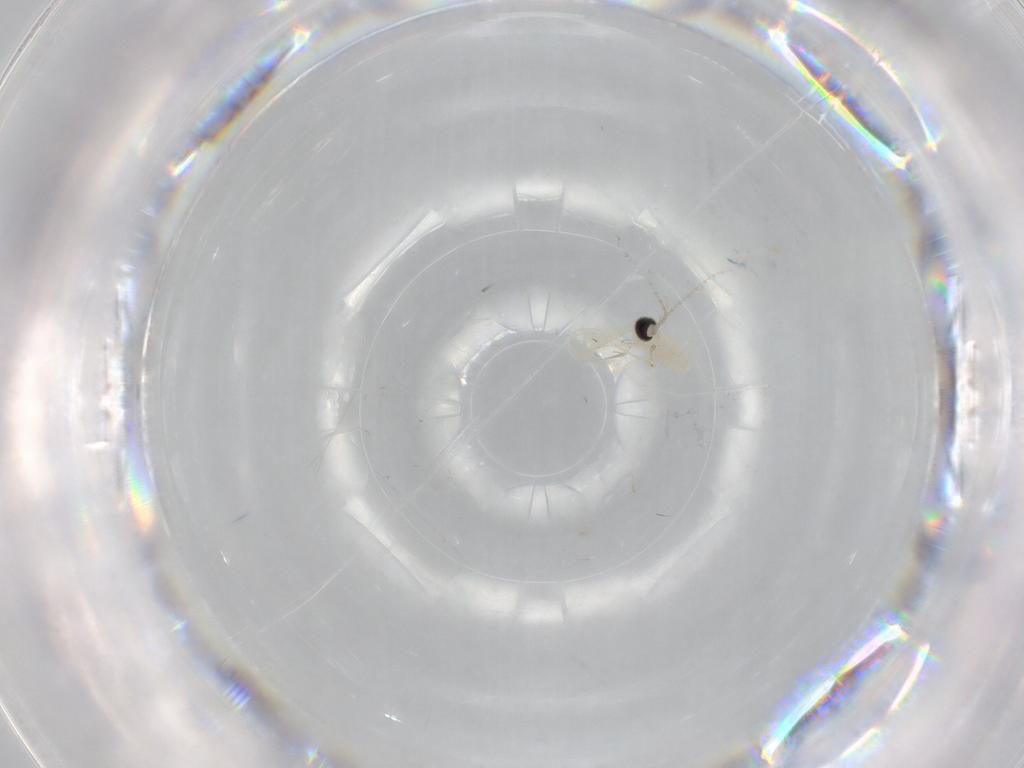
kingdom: Animalia
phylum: Arthropoda
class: Insecta
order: Diptera
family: Cecidomyiidae
